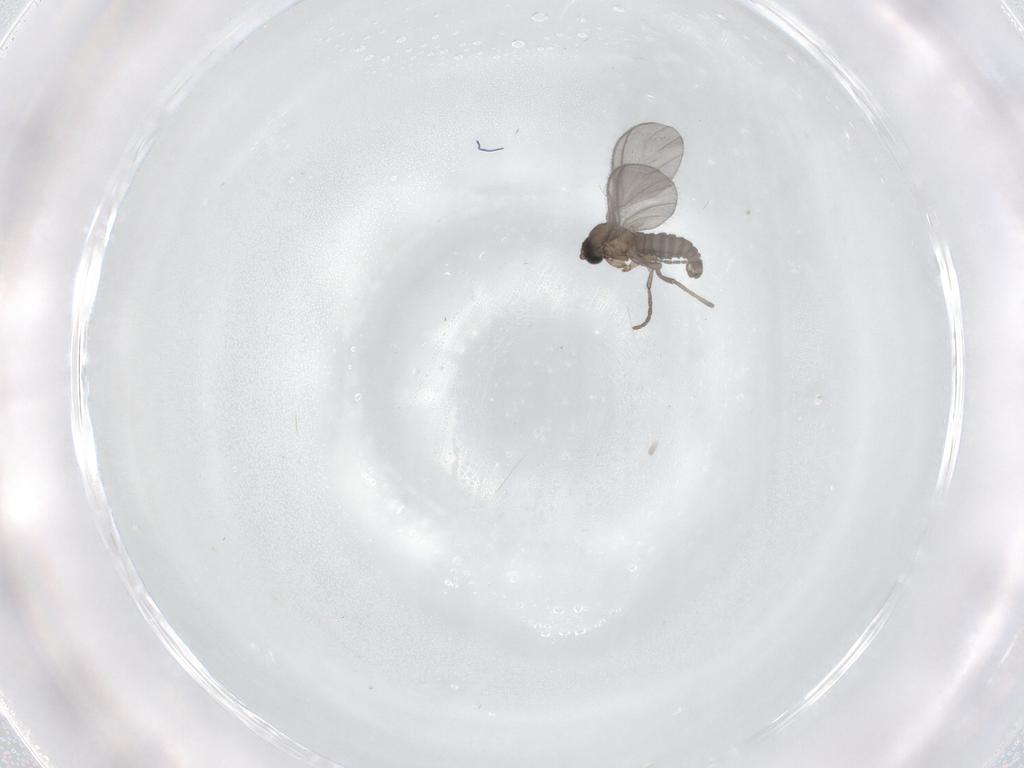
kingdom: Animalia
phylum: Arthropoda
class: Insecta
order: Diptera
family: Sciaridae
